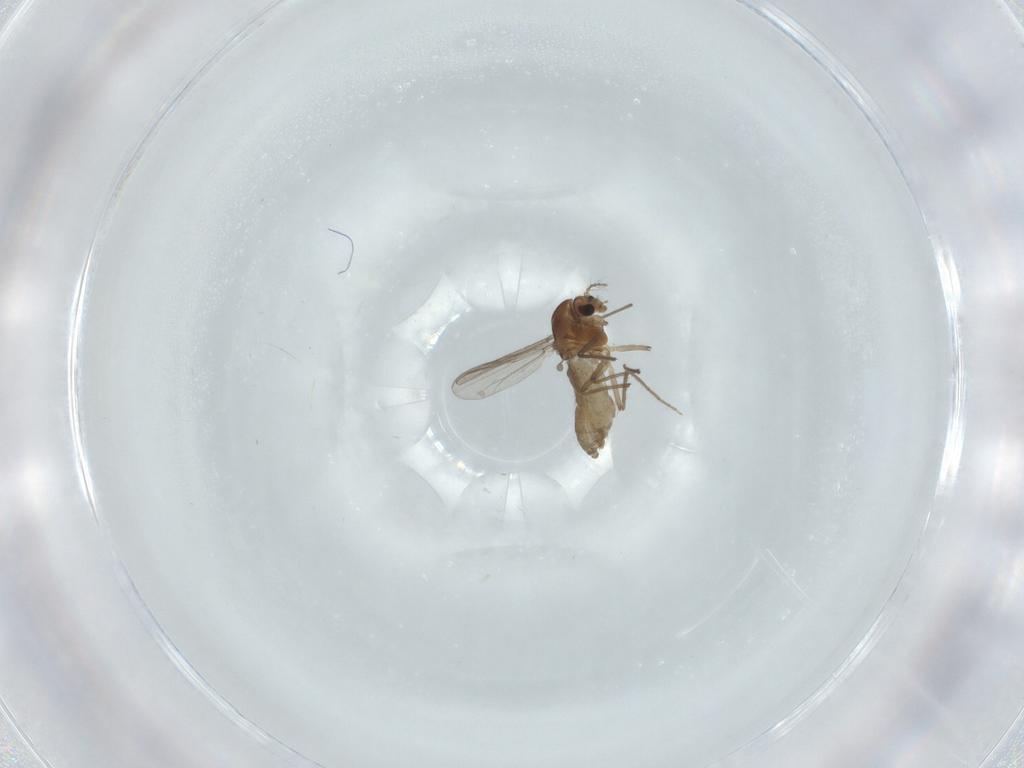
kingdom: Animalia
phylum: Arthropoda
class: Insecta
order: Diptera
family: Chironomidae
